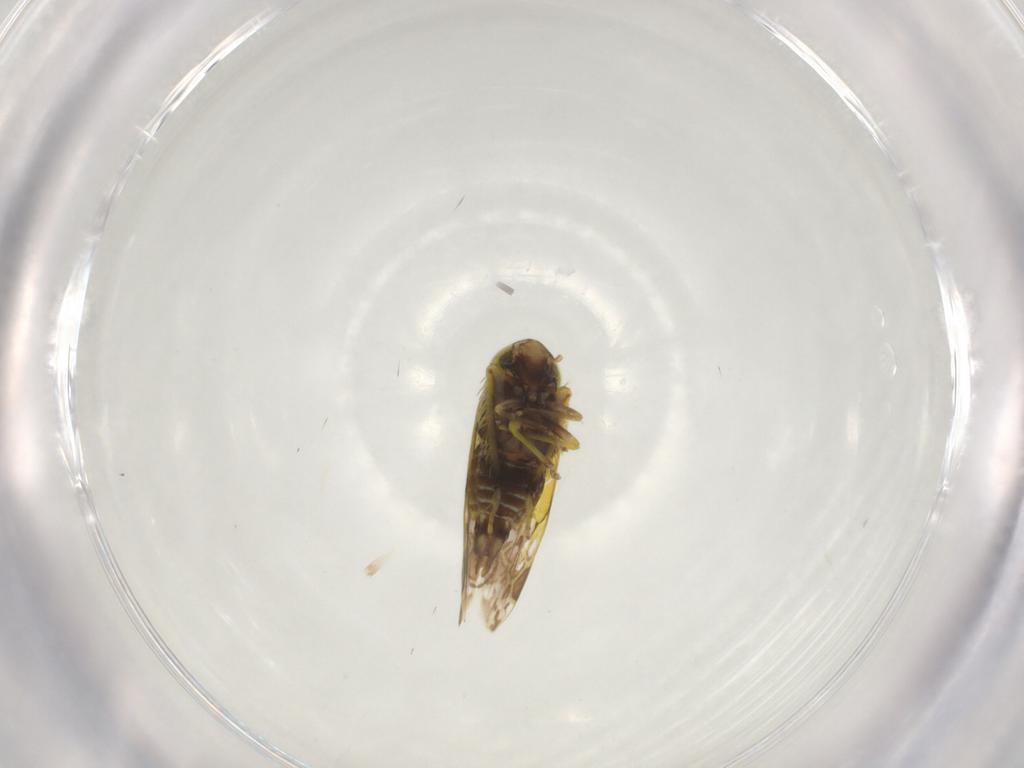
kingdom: Animalia
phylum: Arthropoda
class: Insecta
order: Hemiptera
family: Cicadellidae
